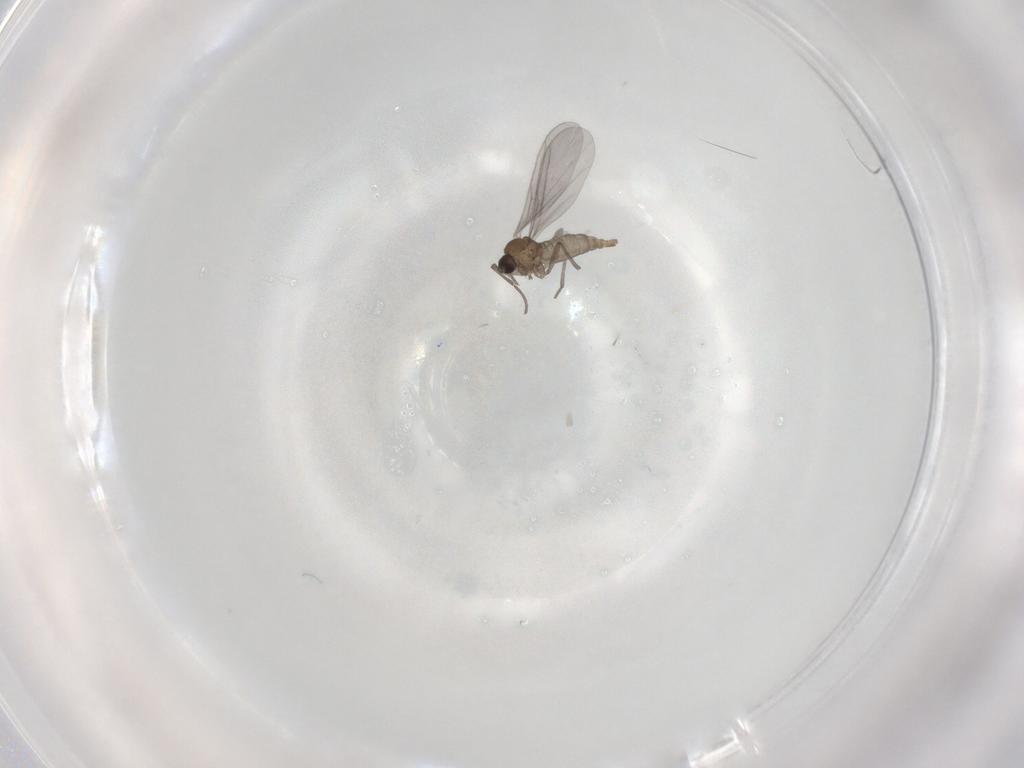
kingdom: Animalia
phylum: Arthropoda
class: Insecta
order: Diptera
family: Sciaridae
